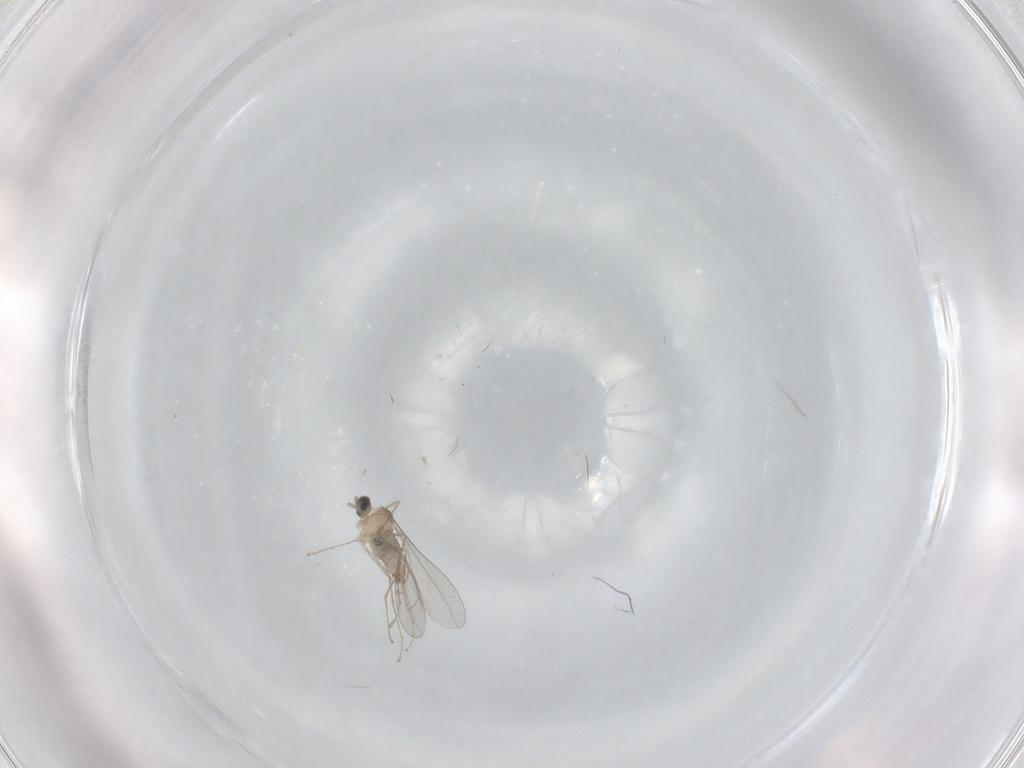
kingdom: Animalia
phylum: Arthropoda
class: Insecta
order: Diptera
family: Cecidomyiidae
